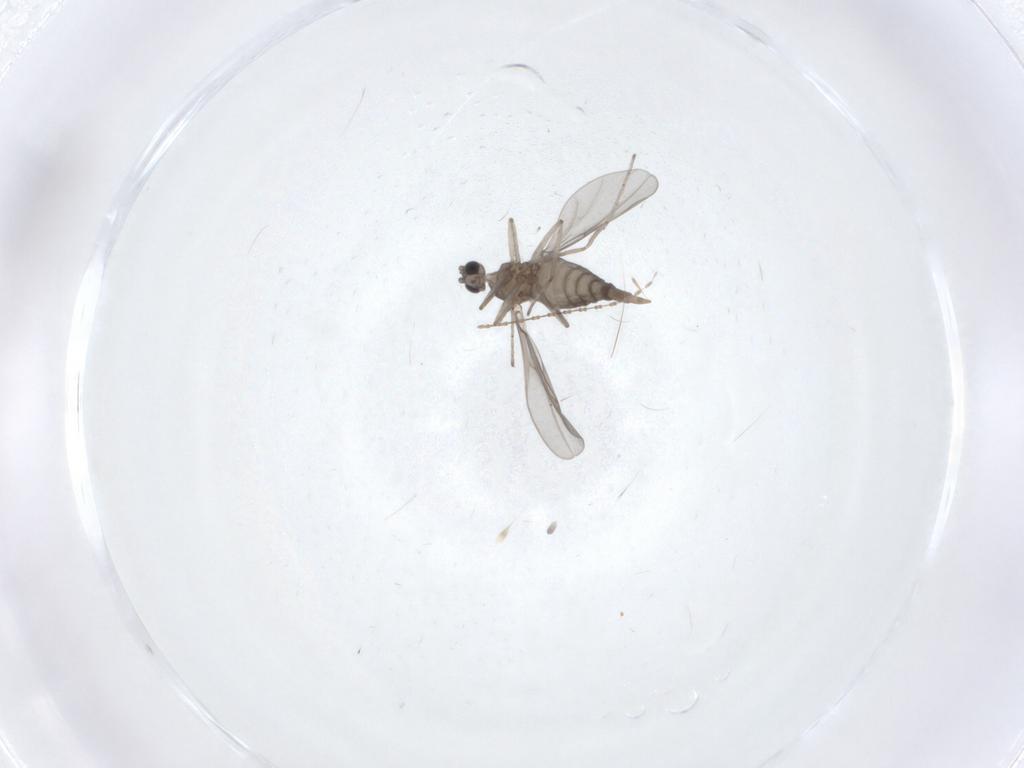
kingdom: Animalia
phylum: Arthropoda
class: Insecta
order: Diptera
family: Cecidomyiidae
